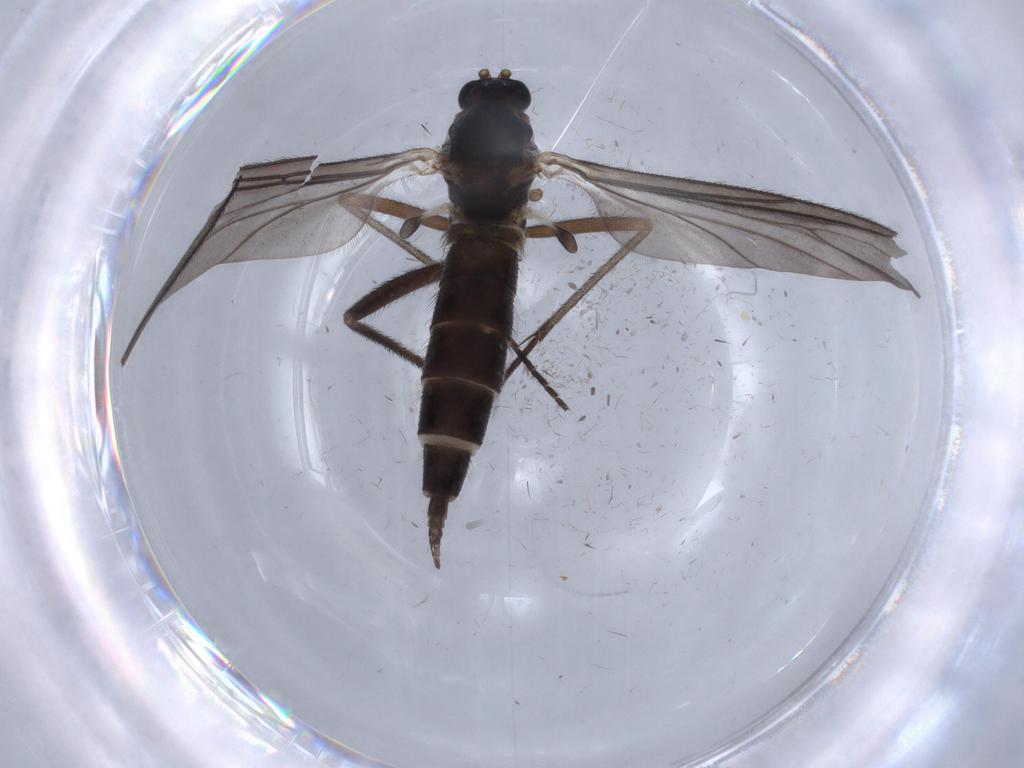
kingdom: Animalia
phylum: Arthropoda
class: Insecta
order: Diptera
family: Sciaridae
